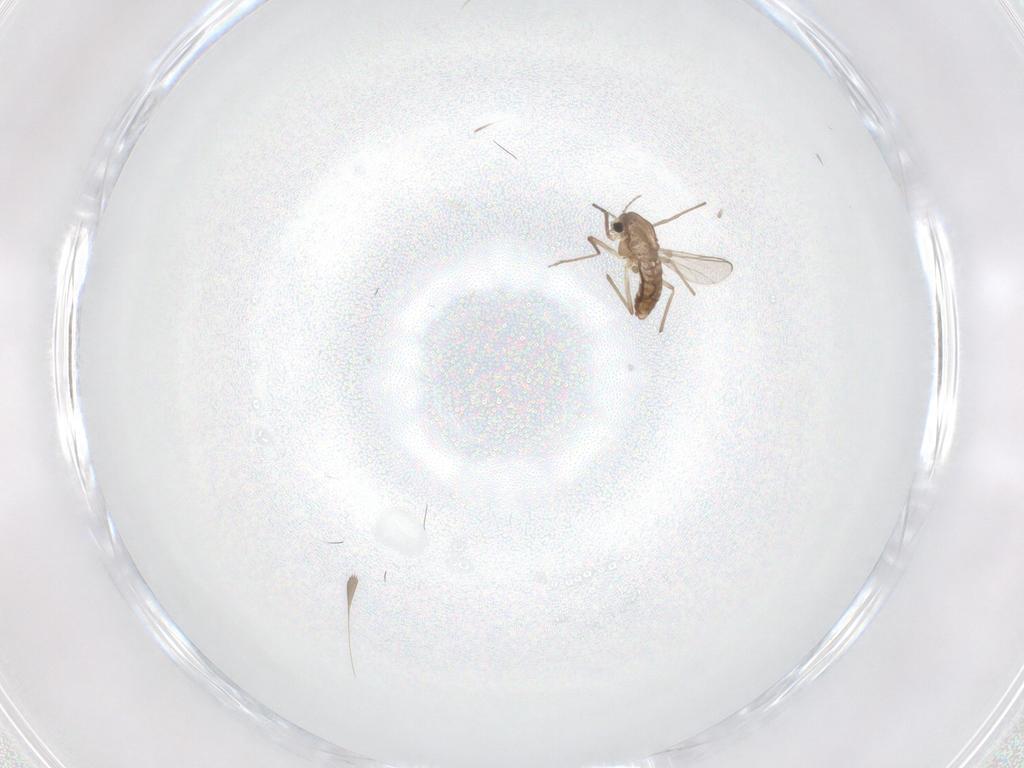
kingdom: Animalia
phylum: Arthropoda
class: Insecta
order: Diptera
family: Chironomidae
